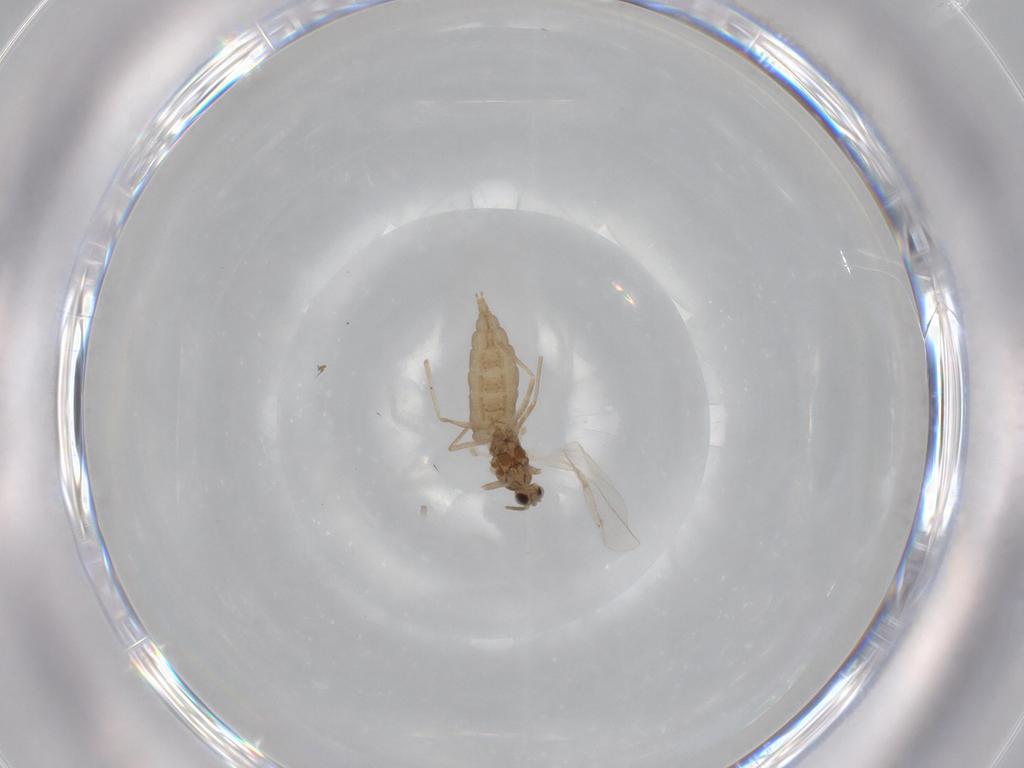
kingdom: Animalia
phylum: Arthropoda
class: Insecta
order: Diptera
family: Cecidomyiidae
